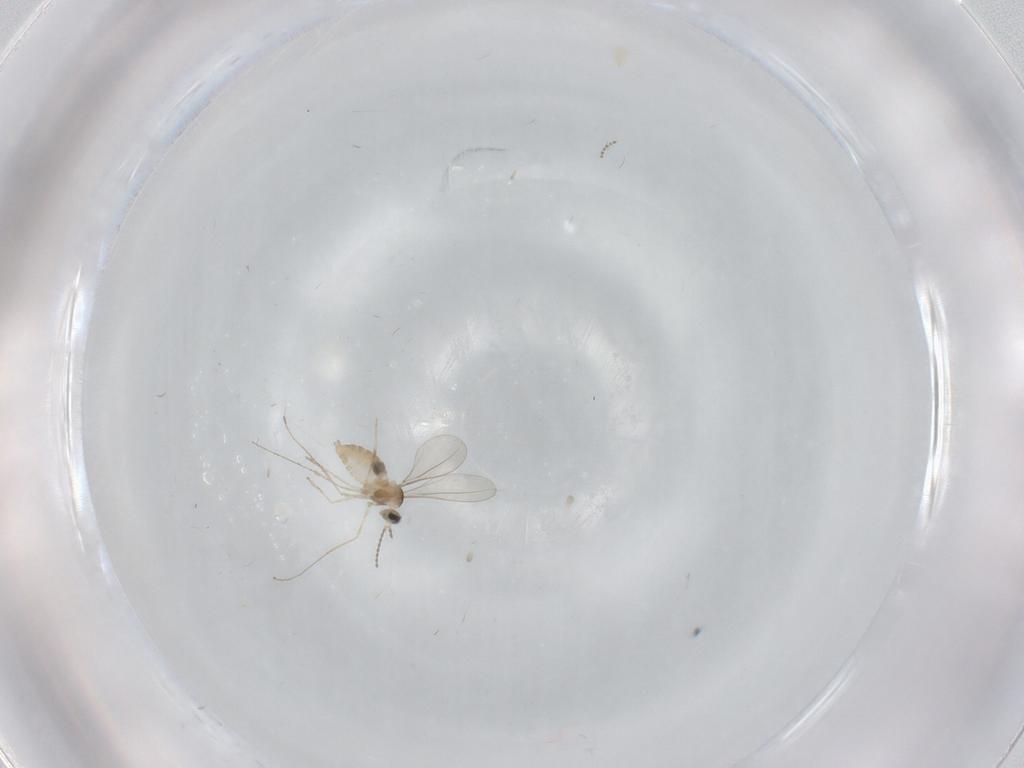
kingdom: Animalia
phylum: Arthropoda
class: Insecta
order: Diptera
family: Cecidomyiidae
